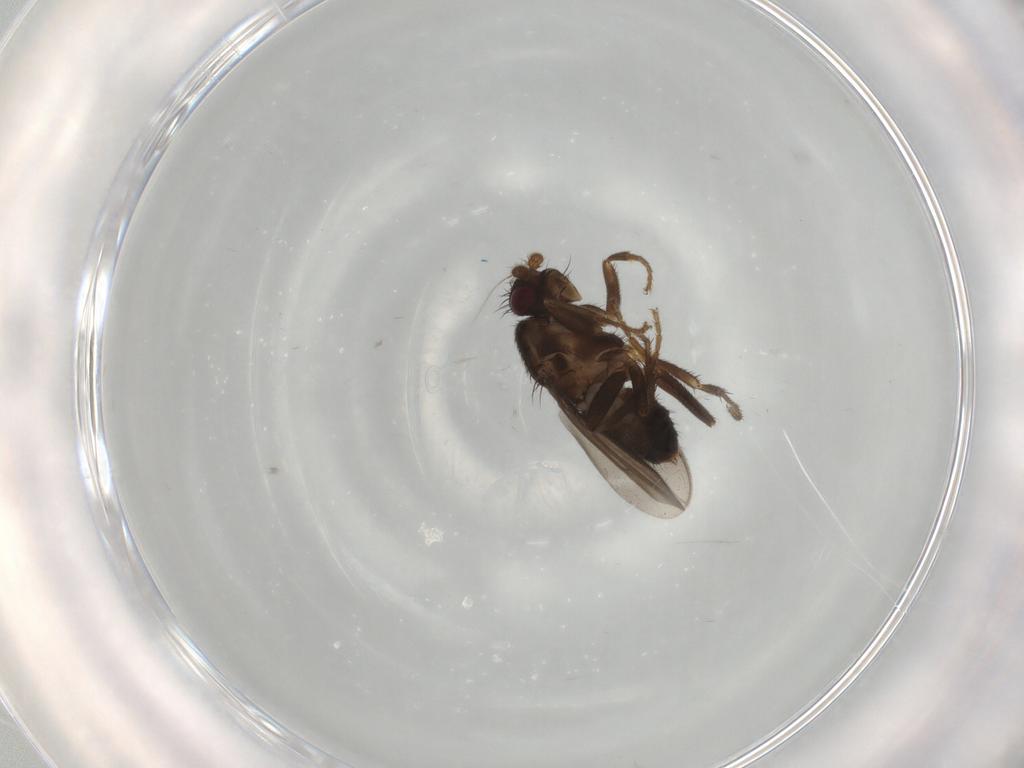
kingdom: Animalia
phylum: Arthropoda
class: Insecta
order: Diptera
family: Sphaeroceridae
